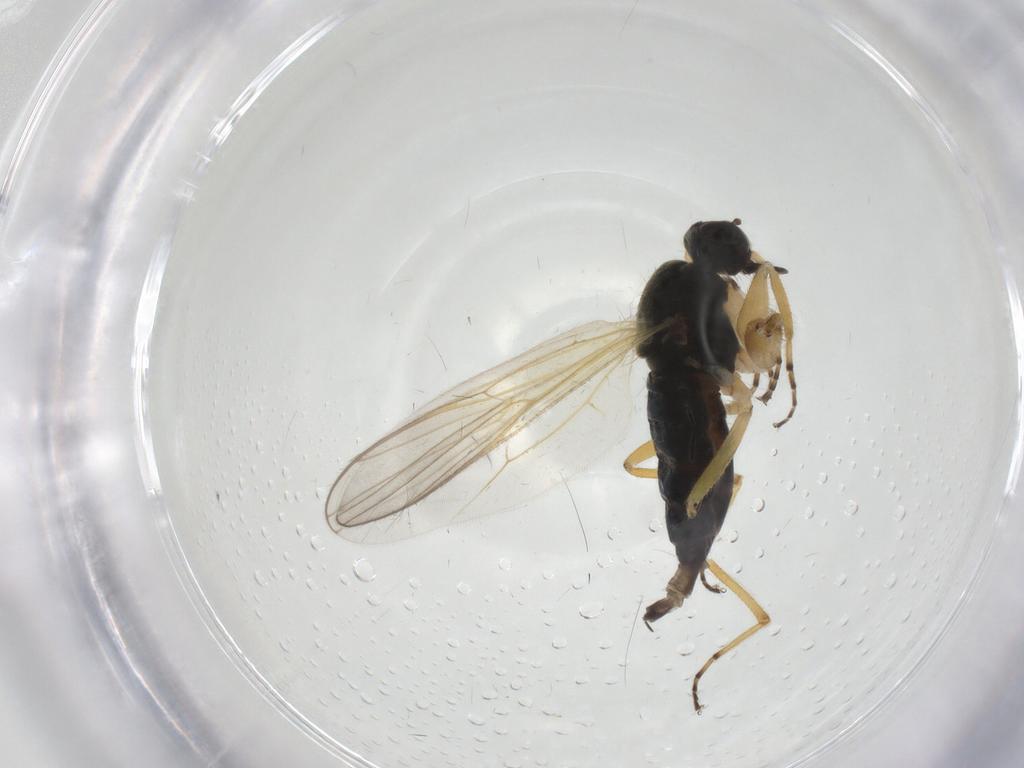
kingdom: Animalia
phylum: Arthropoda
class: Insecta
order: Diptera
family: Hybotidae
